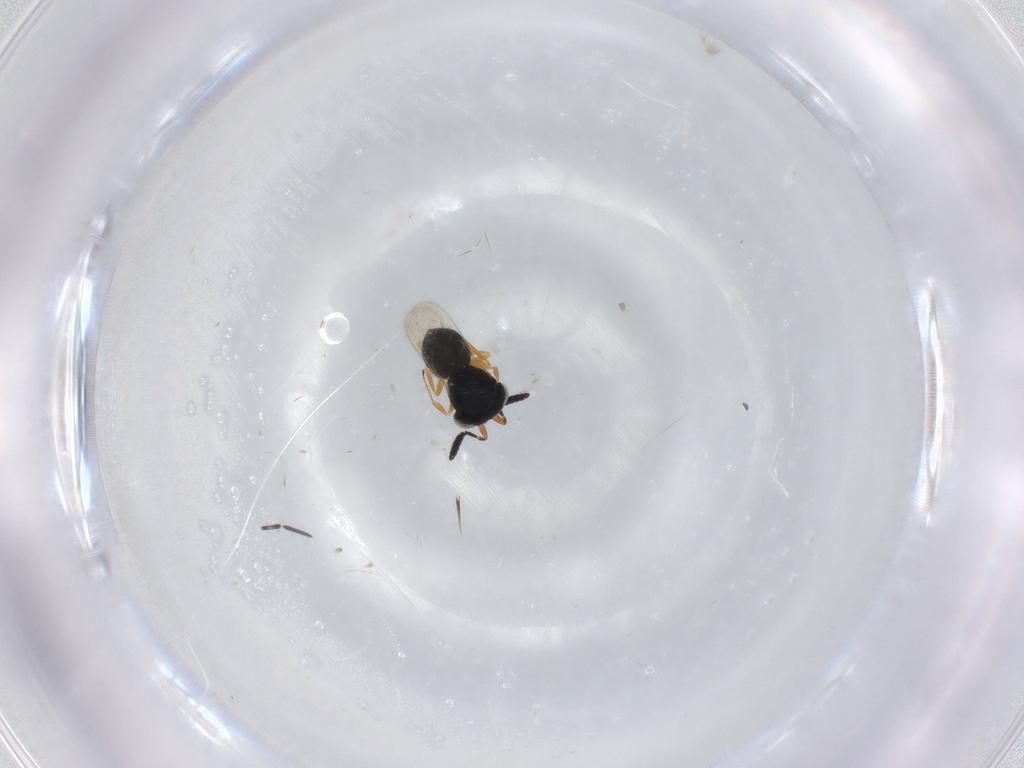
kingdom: Animalia
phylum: Arthropoda
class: Insecta
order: Hymenoptera
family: Scelionidae
